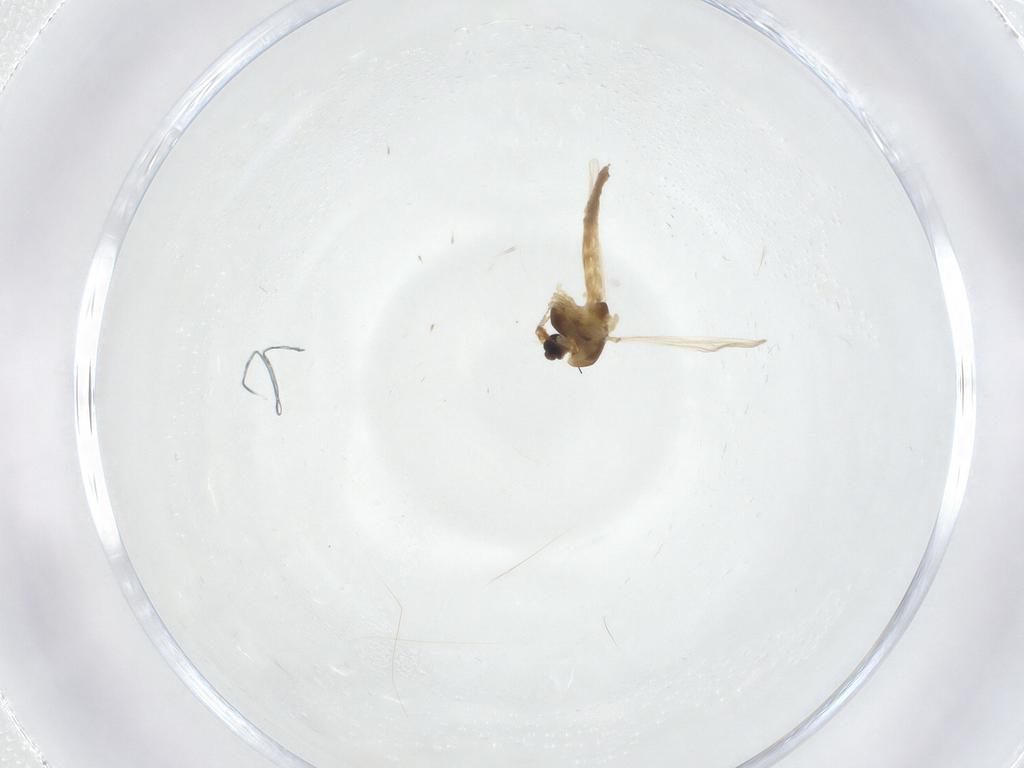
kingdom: Animalia
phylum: Arthropoda
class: Insecta
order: Diptera
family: Chironomidae
